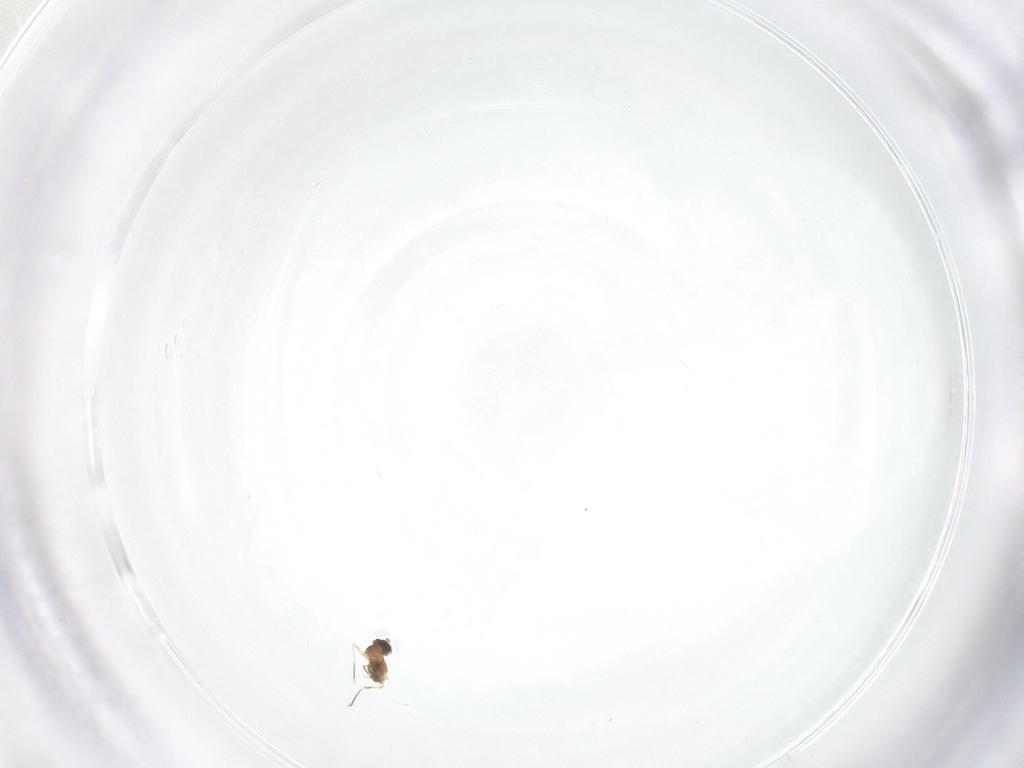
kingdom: Animalia
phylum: Arthropoda
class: Insecta
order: Diptera
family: Cecidomyiidae
